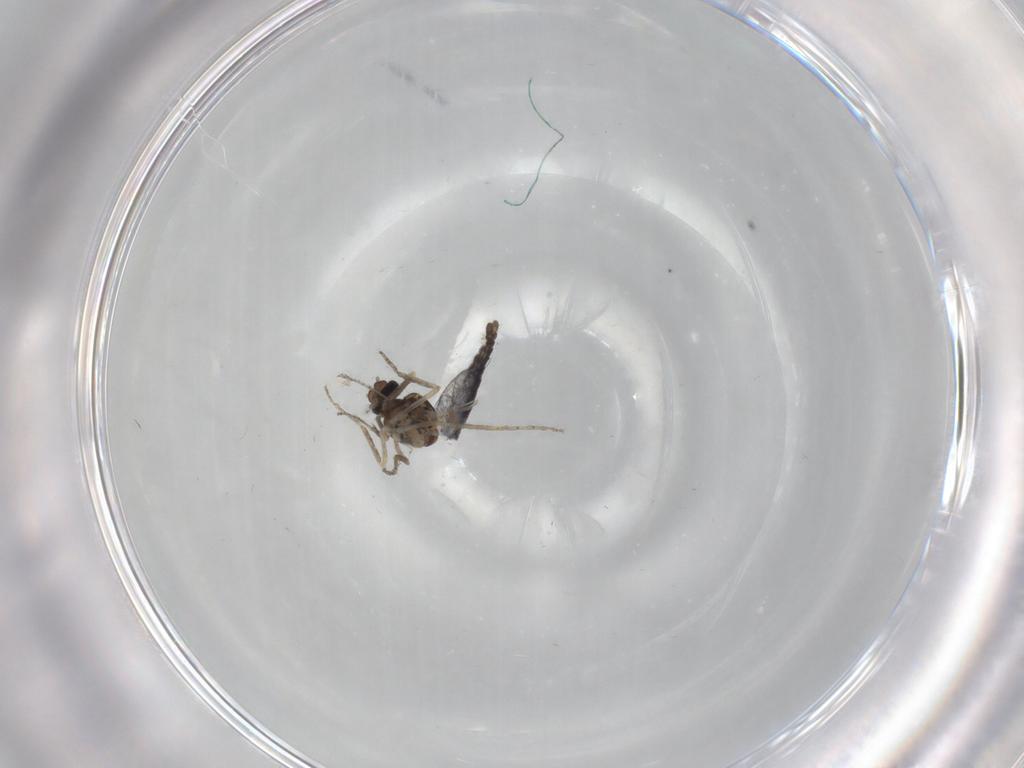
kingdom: Animalia
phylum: Arthropoda
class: Insecta
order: Diptera
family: Ceratopogonidae
